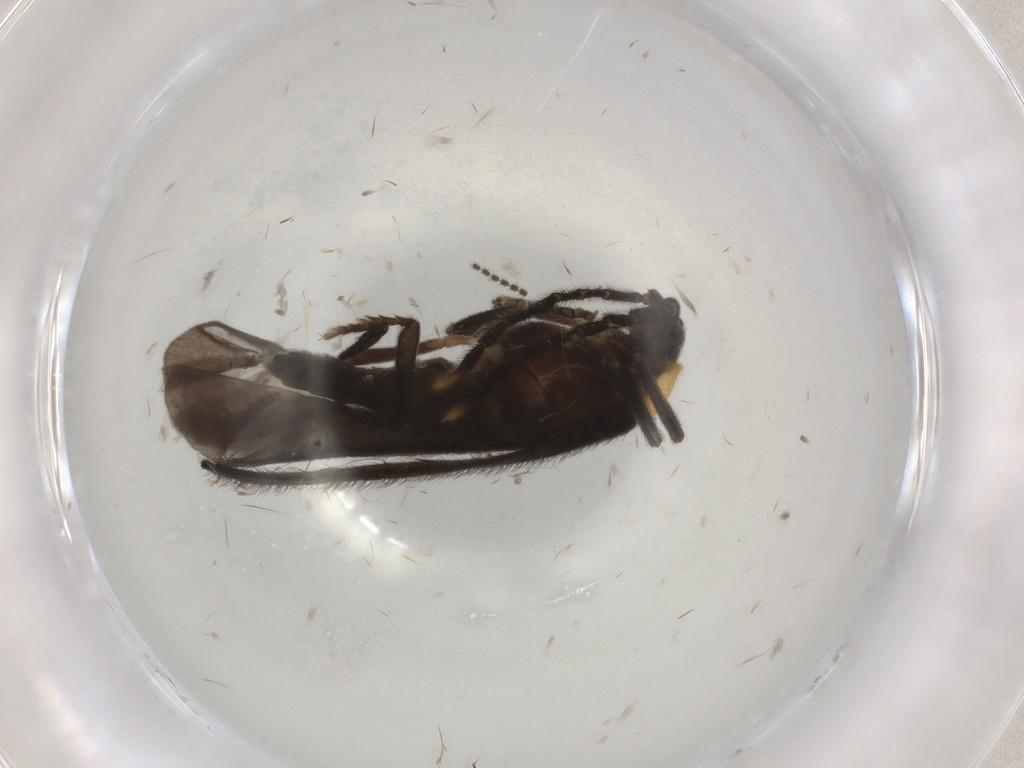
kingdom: Animalia
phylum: Arthropoda
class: Insecta
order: Coleoptera
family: Lycidae
